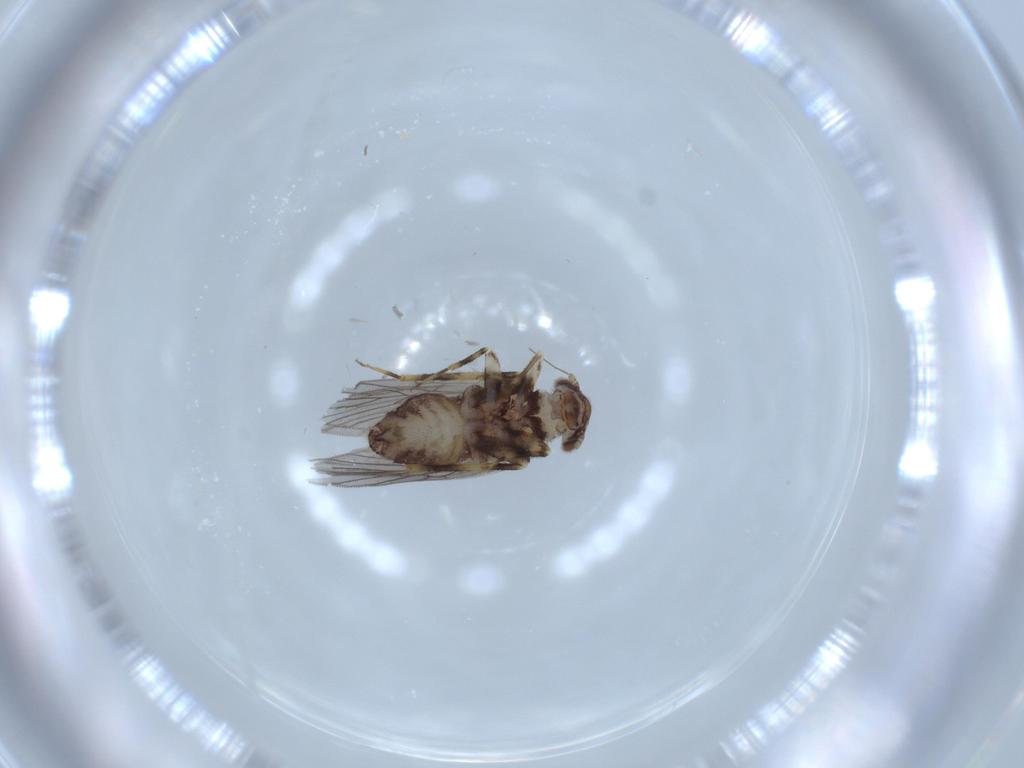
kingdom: Animalia
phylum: Arthropoda
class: Insecta
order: Psocodea
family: Lepidopsocidae
